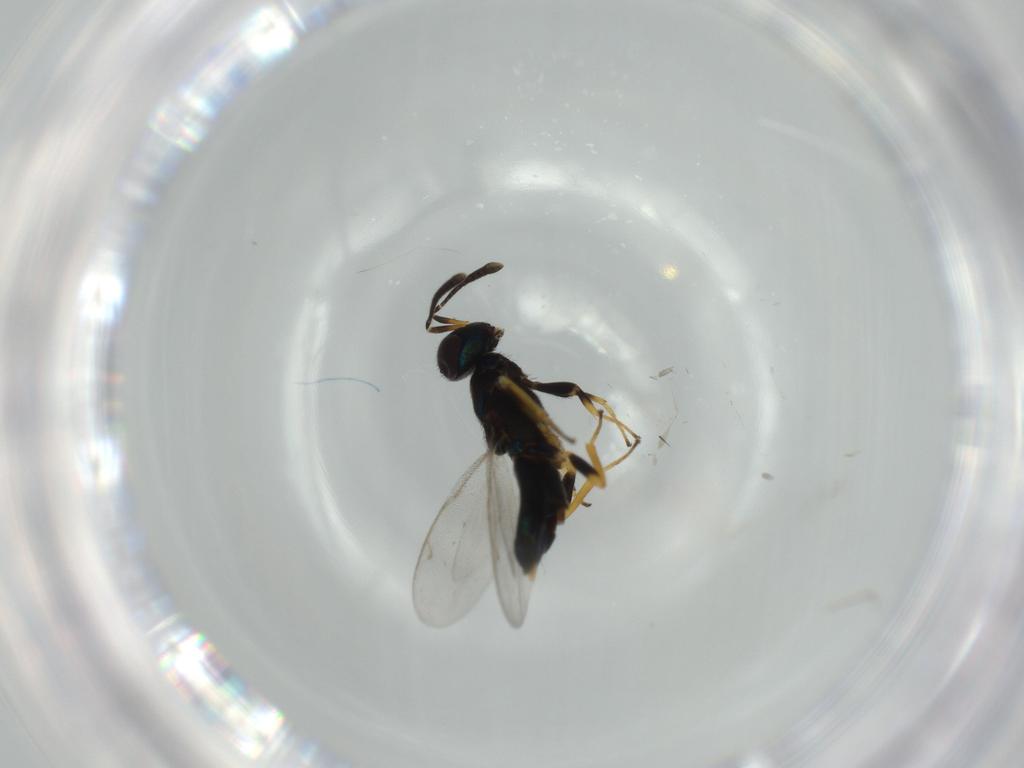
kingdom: Animalia
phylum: Arthropoda
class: Insecta
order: Hymenoptera
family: Eupelmidae
